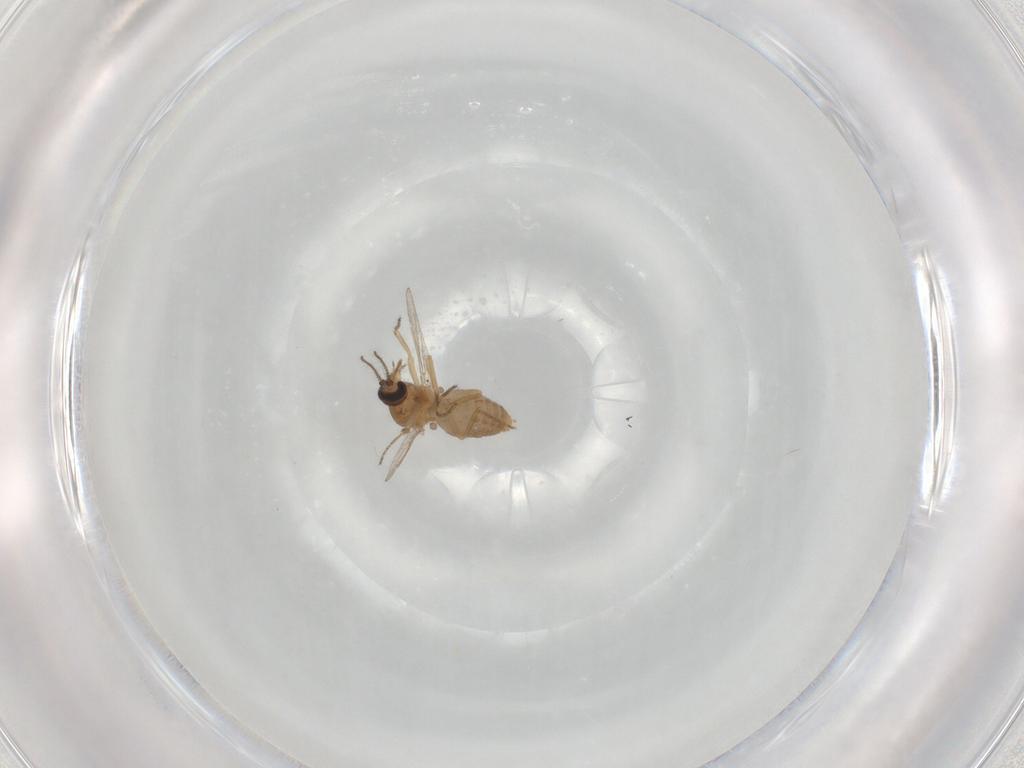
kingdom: Animalia
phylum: Arthropoda
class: Insecta
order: Diptera
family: Ceratopogonidae
